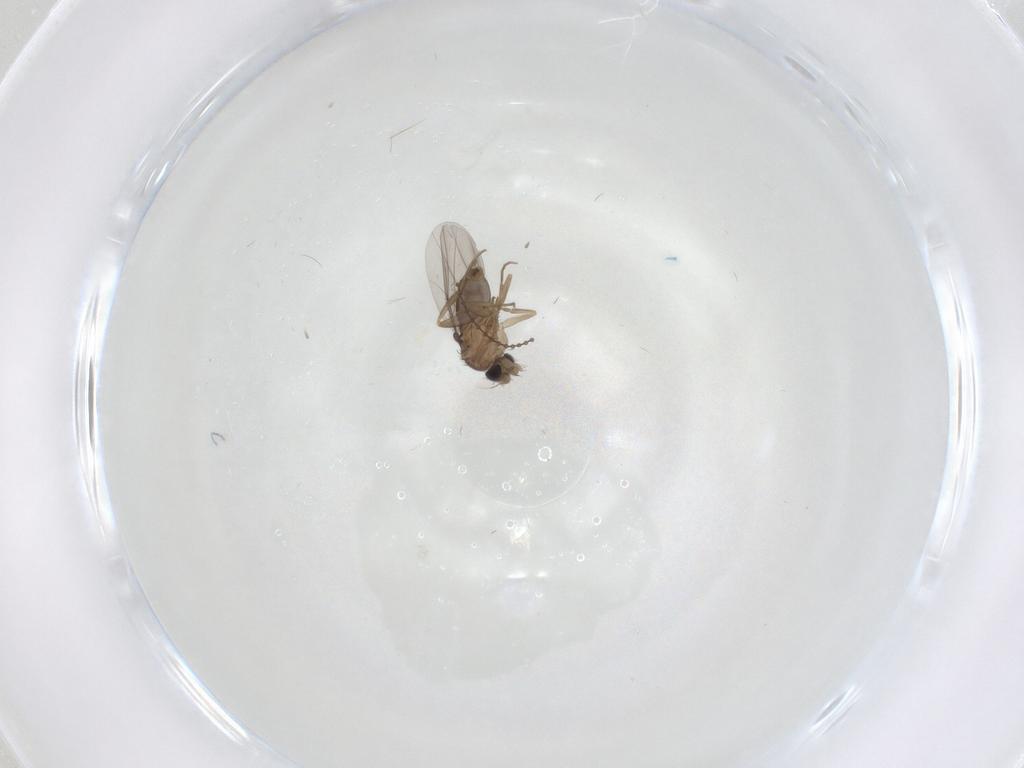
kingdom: Animalia
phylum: Arthropoda
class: Insecta
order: Diptera
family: Cecidomyiidae
